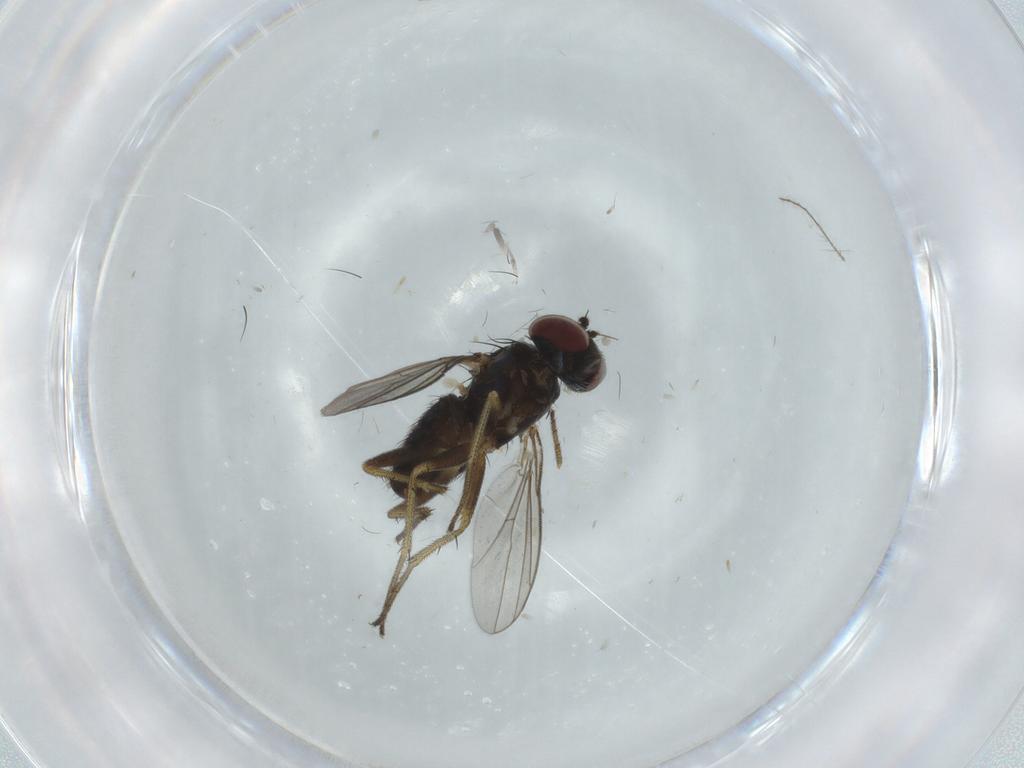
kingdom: Animalia
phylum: Arthropoda
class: Insecta
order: Diptera
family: Dolichopodidae
